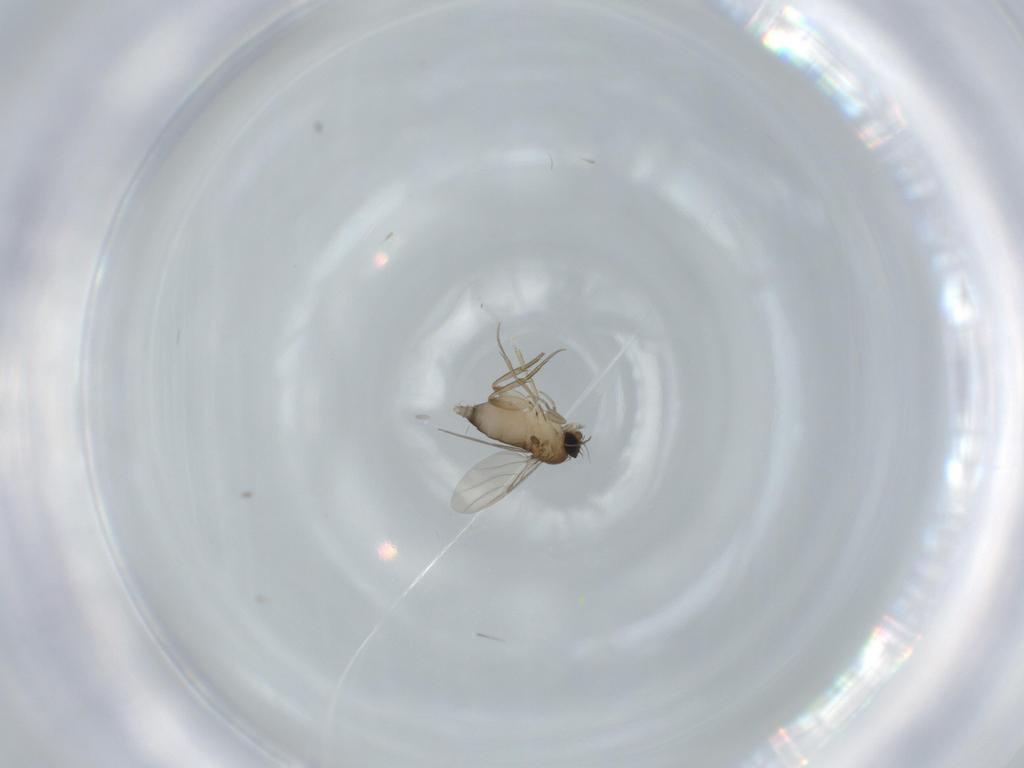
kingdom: Animalia
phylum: Arthropoda
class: Insecta
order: Diptera
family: Phoridae
